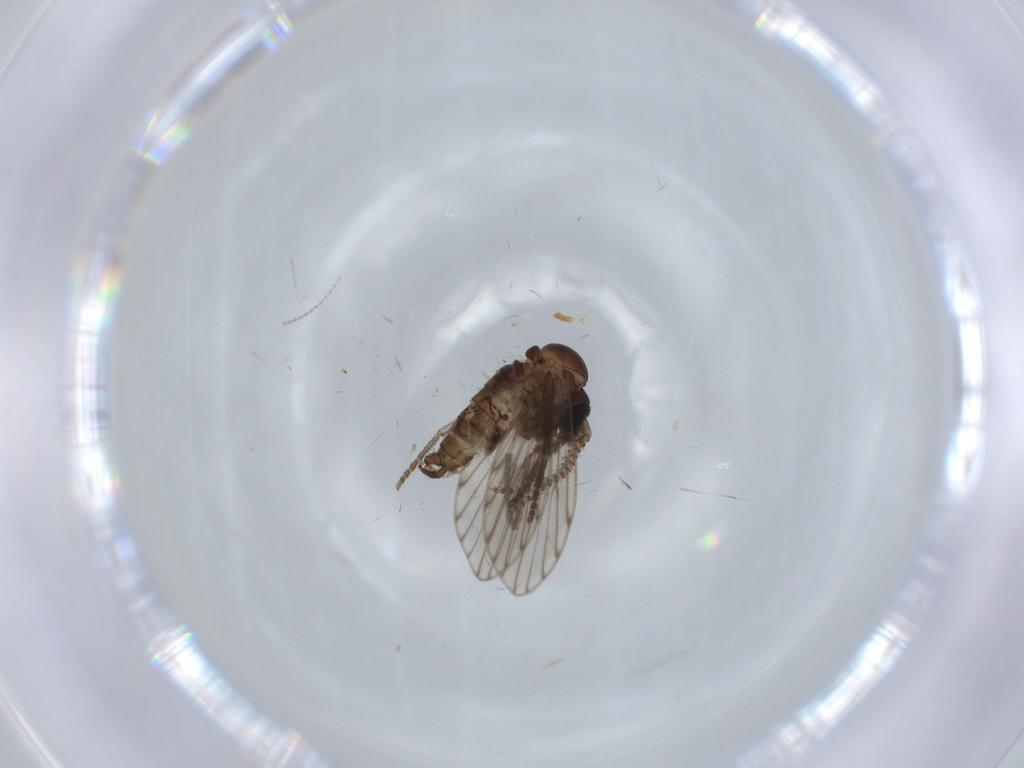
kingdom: Animalia
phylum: Arthropoda
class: Insecta
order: Diptera
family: Psychodidae
